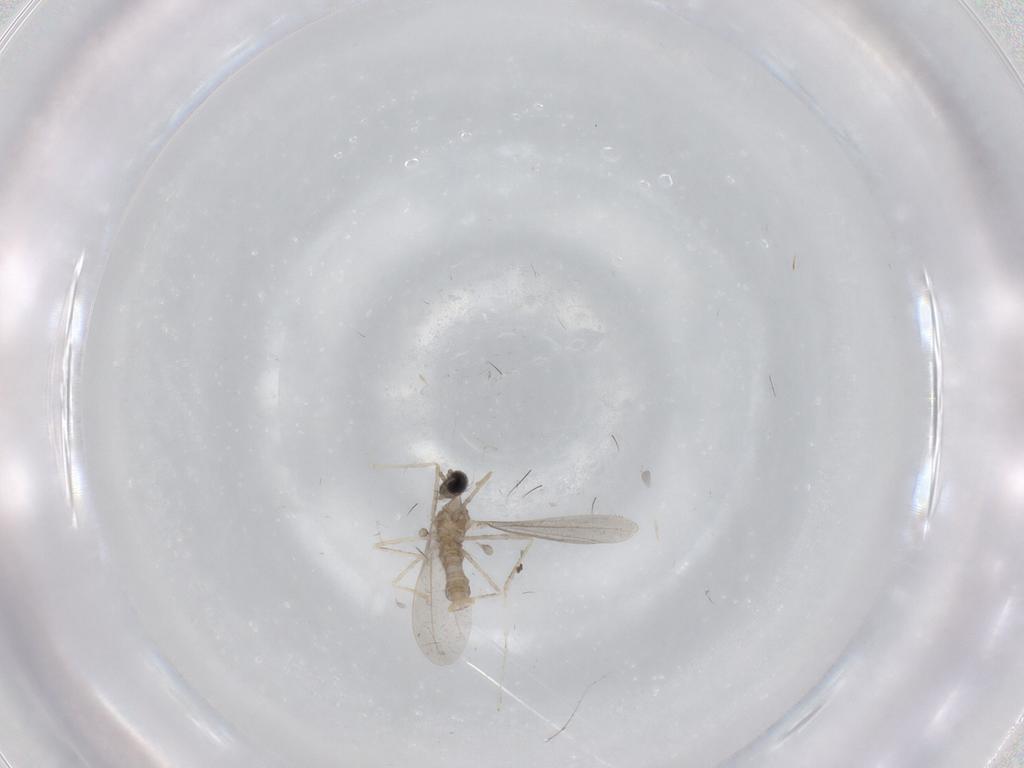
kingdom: Animalia
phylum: Arthropoda
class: Insecta
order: Diptera
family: Cecidomyiidae
